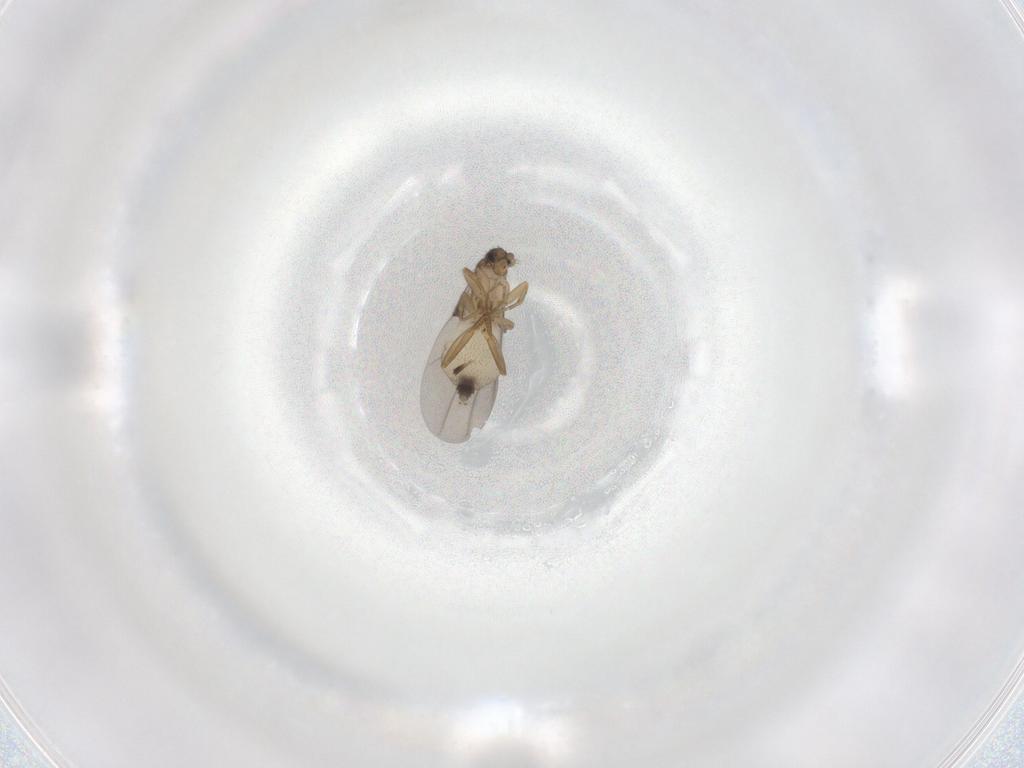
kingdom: Animalia
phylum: Arthropoda
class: Insecta
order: Diptera
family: Phoridae
